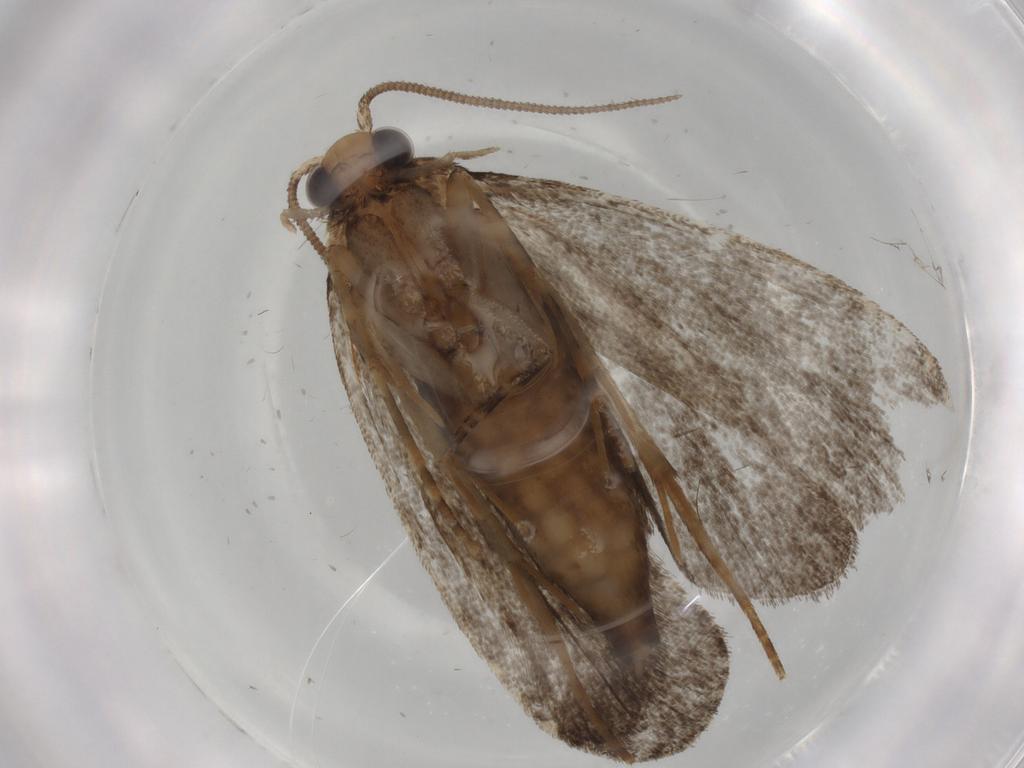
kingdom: Animalia
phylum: Arthropoda
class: Insecta
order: Lepidoptera
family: Tineidae
